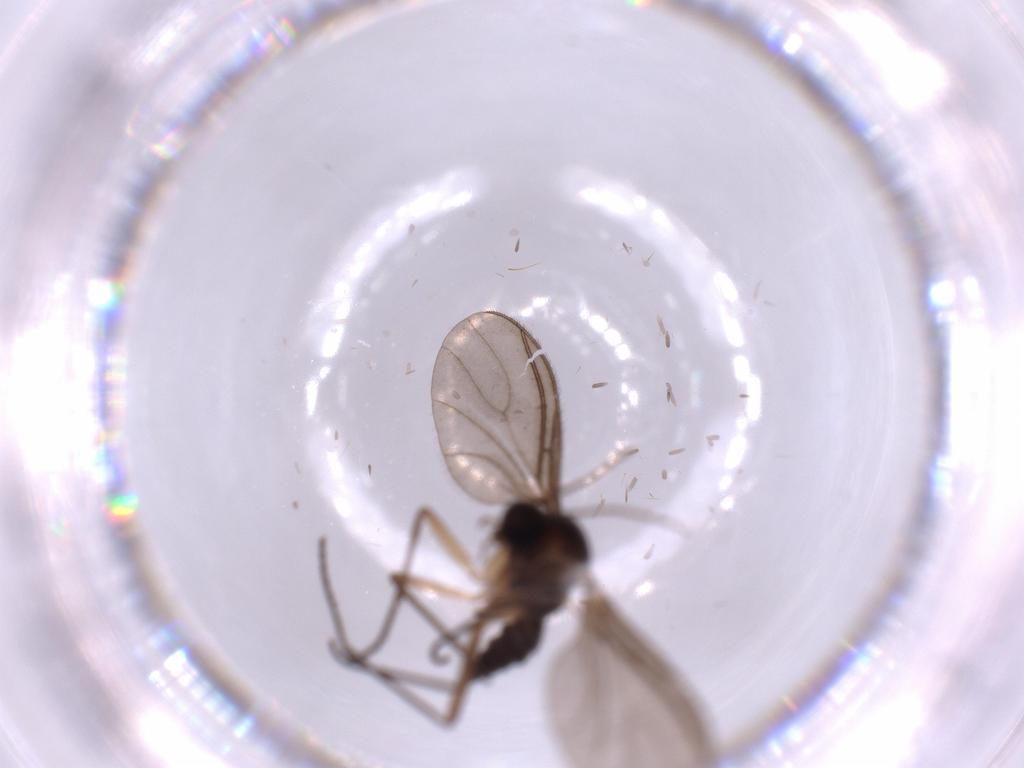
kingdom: Animalia
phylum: Arthropoda
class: Insecta
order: Diptera
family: Sciaridae
